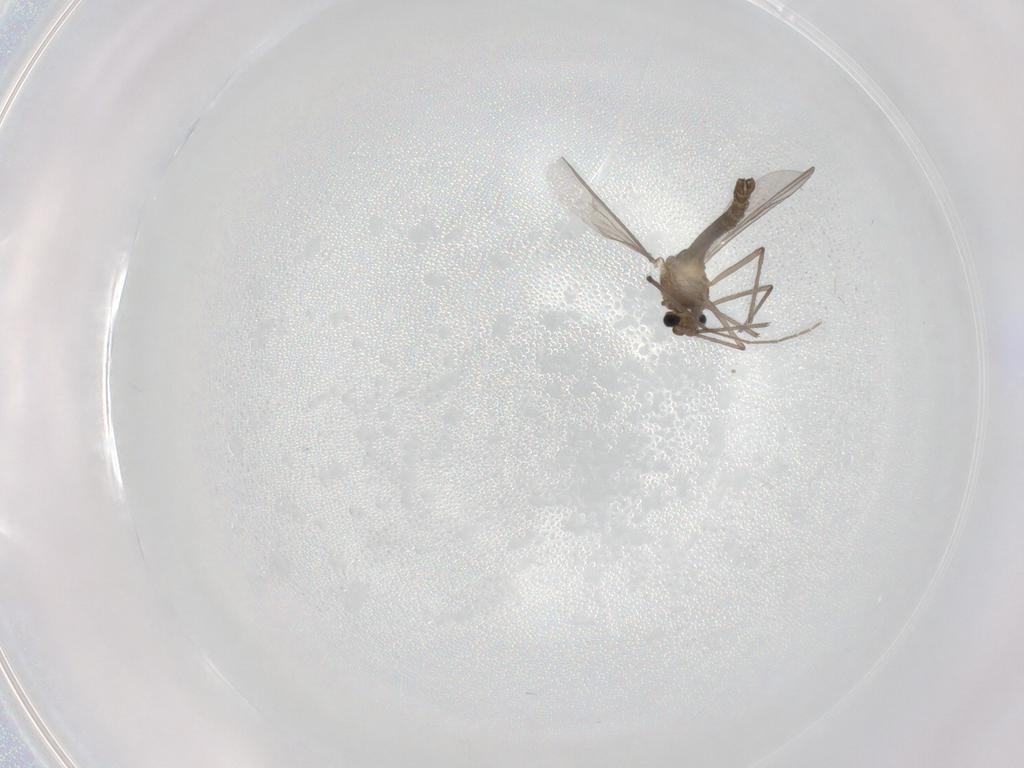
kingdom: Animalia
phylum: Arthropoda
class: Insecta
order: Diptera
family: Chironomidae
